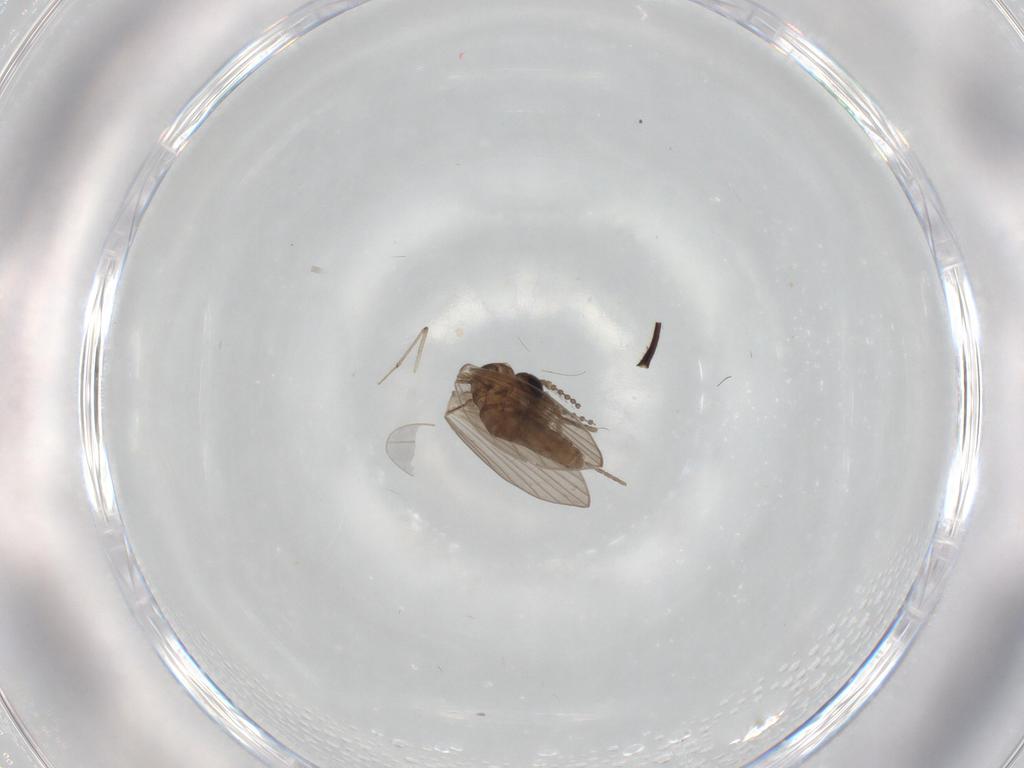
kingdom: Animalia
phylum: Arthropoda
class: Insecta
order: Diptera
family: Psychodidae
